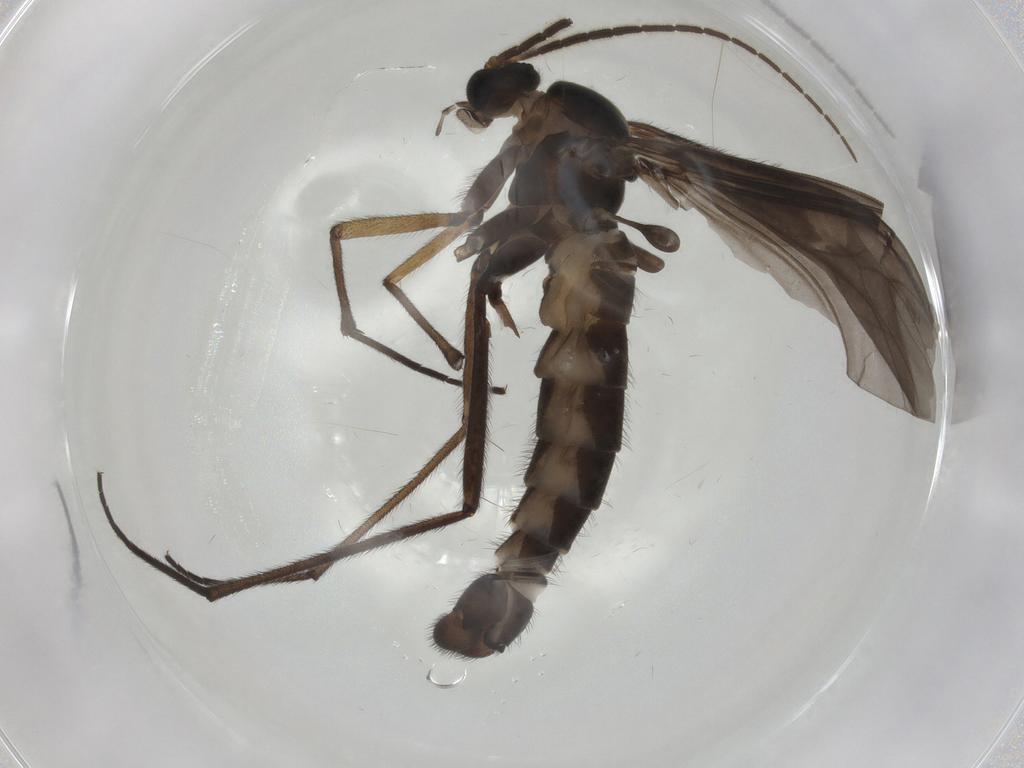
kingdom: Animalia
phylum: Arthropoda
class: Insecta
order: Diptera
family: Sciaridae
